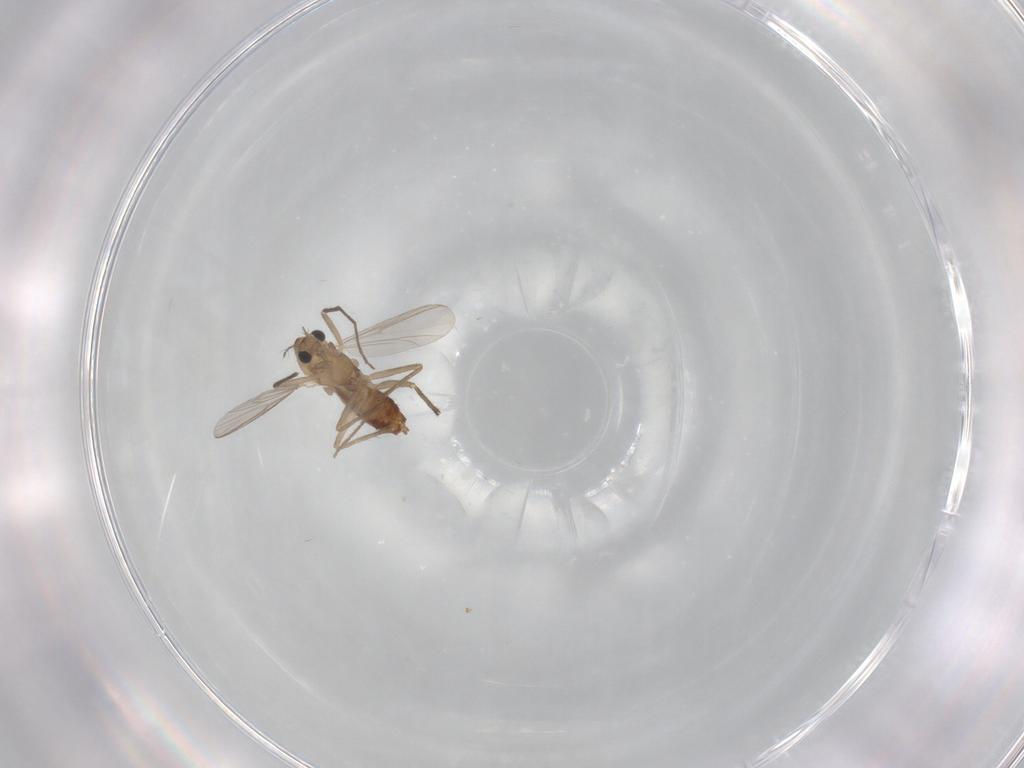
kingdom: Animalia
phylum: Arthropoda
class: Insecta
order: Diptera
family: Chironomidae
